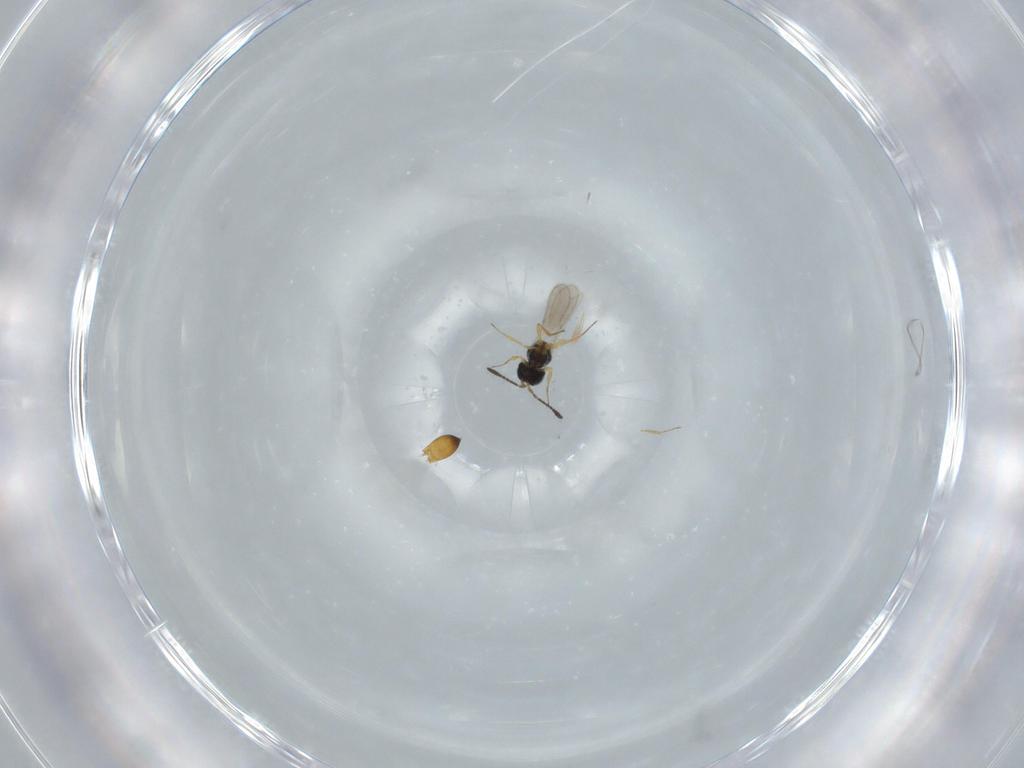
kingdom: Animalia
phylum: Arthropoda
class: Insecta
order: Hymenoptera
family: Scelionidae
